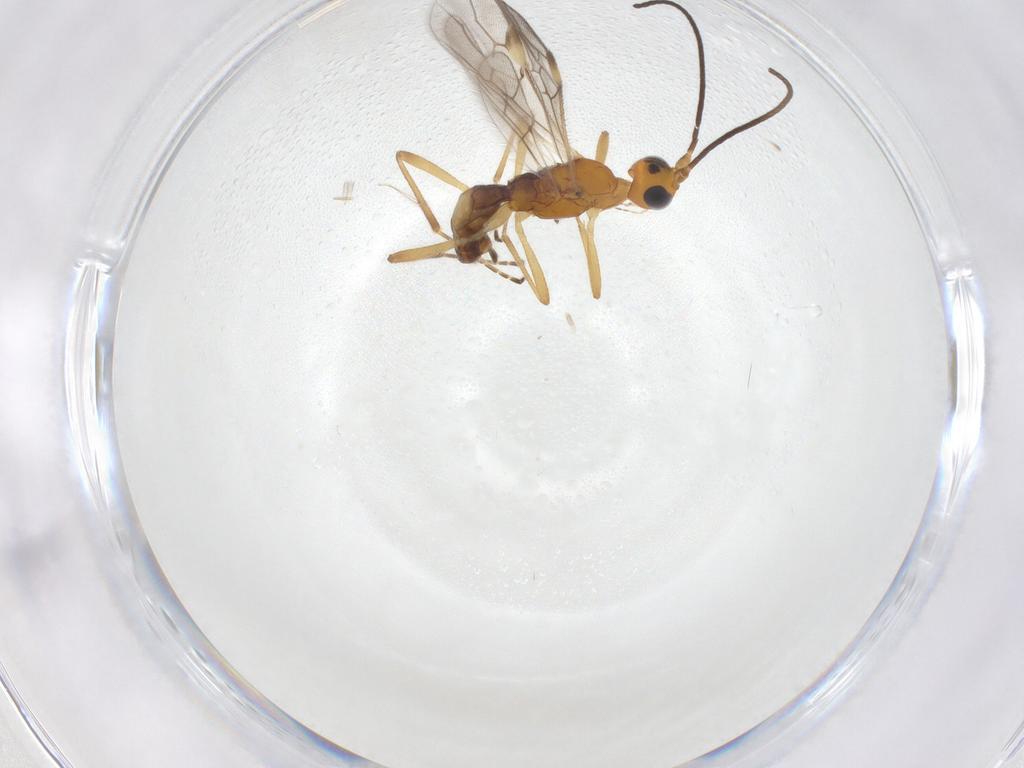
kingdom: Animalia
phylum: Arthropoda
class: Insecta
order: Hymenoptera
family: Braconidae
